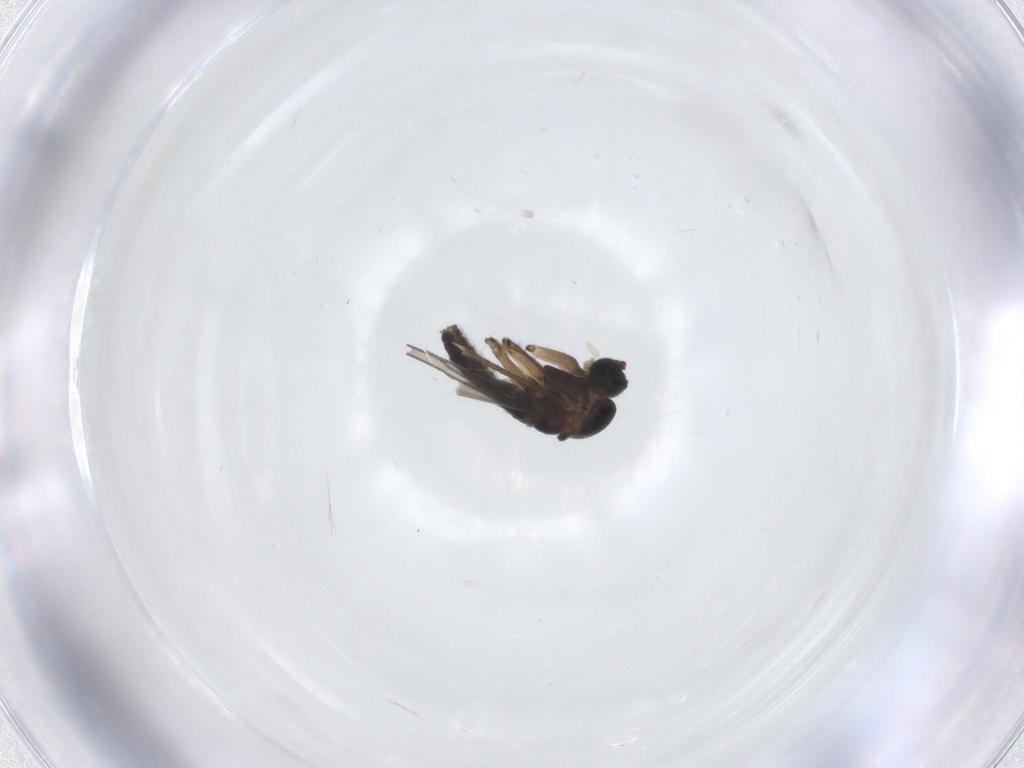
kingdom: Animalia
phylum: Arthropoda
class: Insecta
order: Diptera
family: Sciaridae
